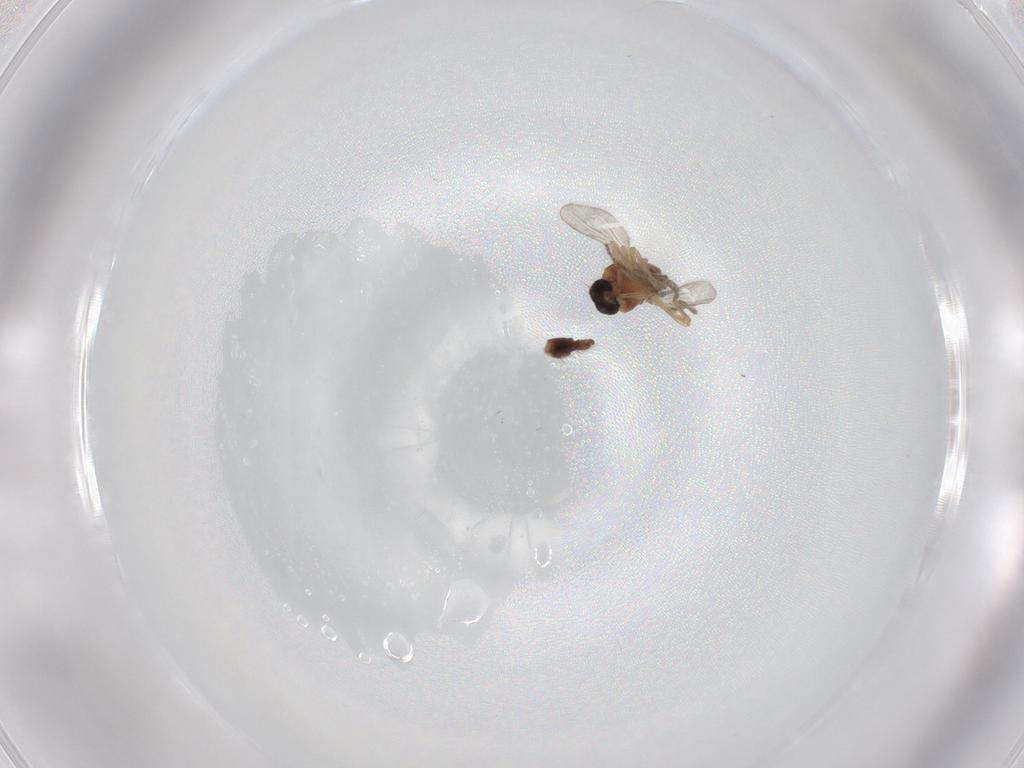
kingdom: Animalia
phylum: Arthropoda
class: Insecta
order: Diptera
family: Ceratopogonidae
